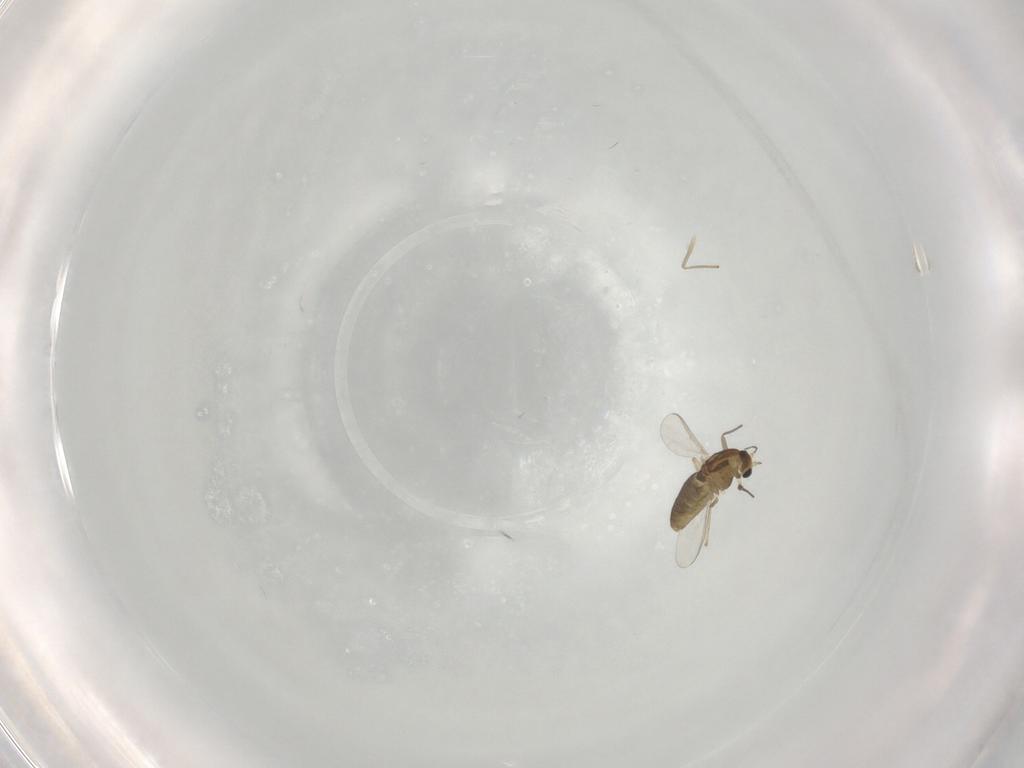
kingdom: Animalia
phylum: Arthropoda
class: Insecta
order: Diptera
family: Chironomidae
